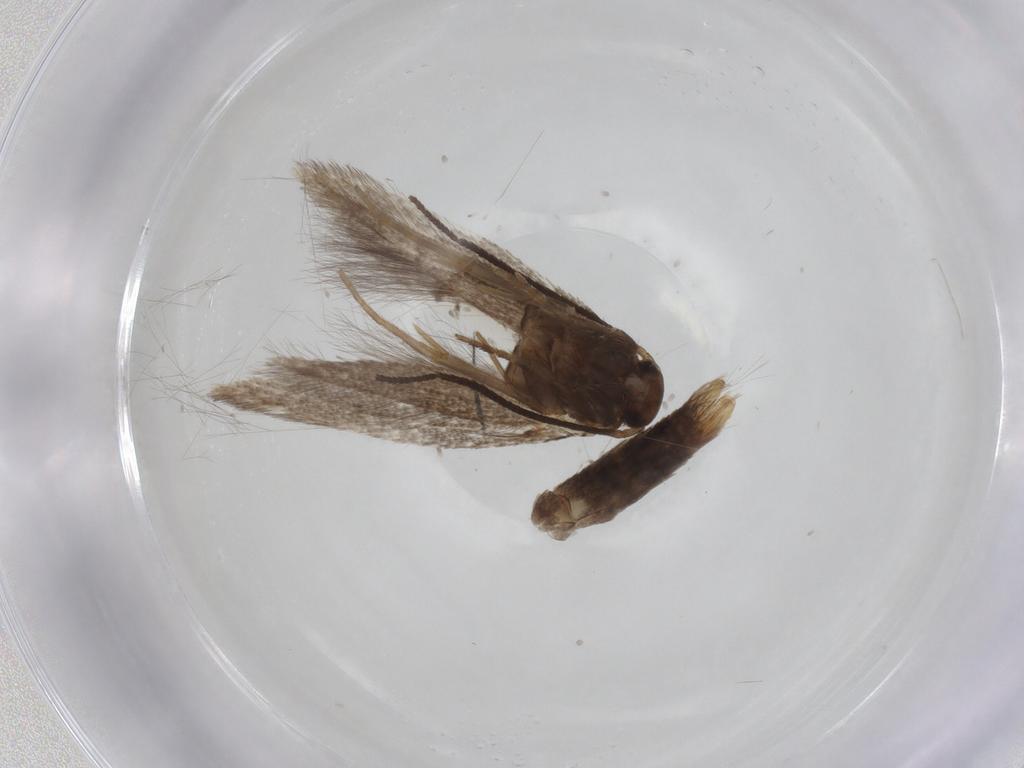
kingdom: Animalia
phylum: Arthropoda
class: Insecta
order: Lepidoptera
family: Elachistidae
